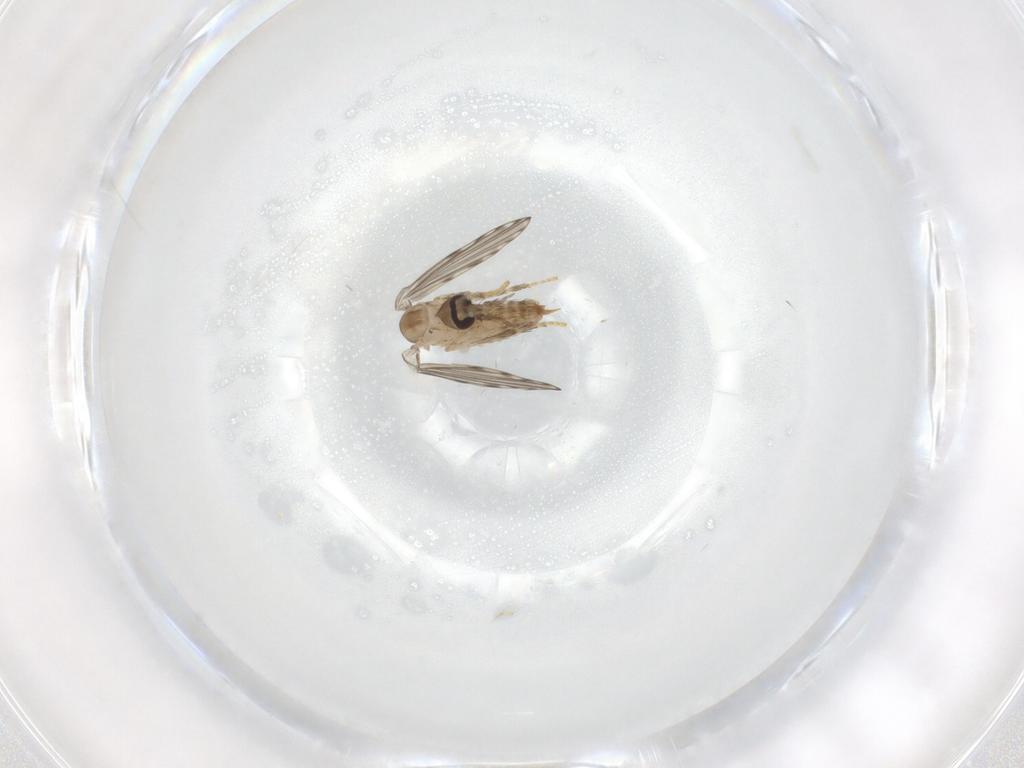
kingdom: Animalia
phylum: Arthropoda
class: Insecta
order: Diptera
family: Psychodidae
